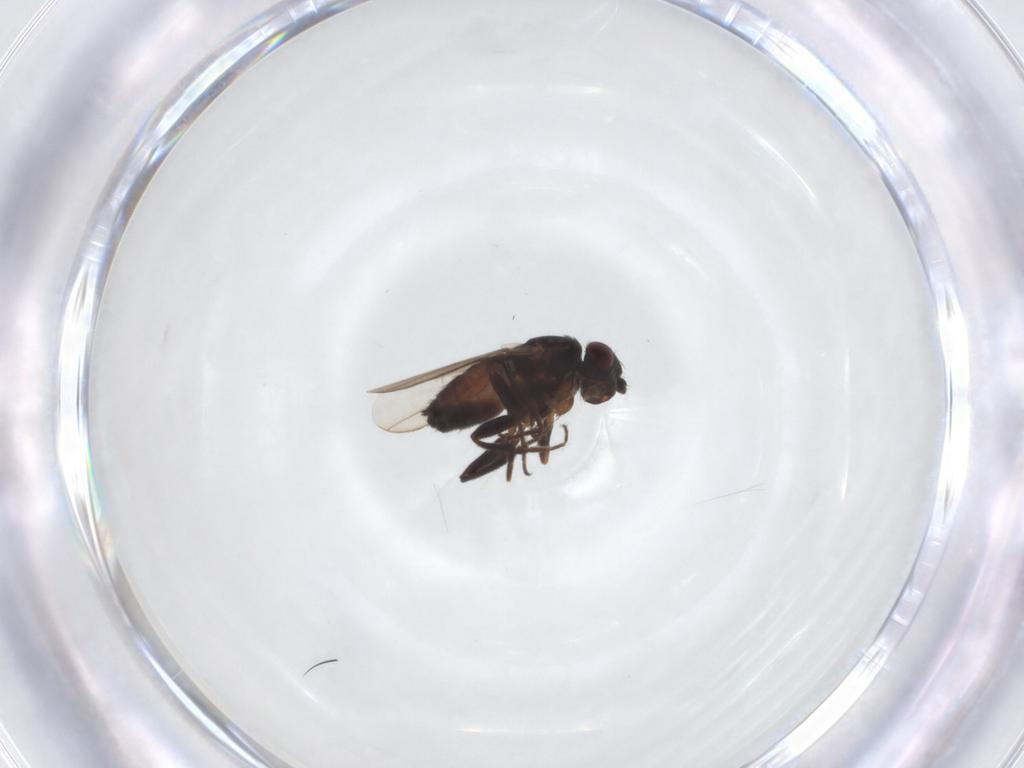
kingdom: Animalia
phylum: Arthropoda
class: Insecta
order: Diptera
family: Sphaeroceridae
